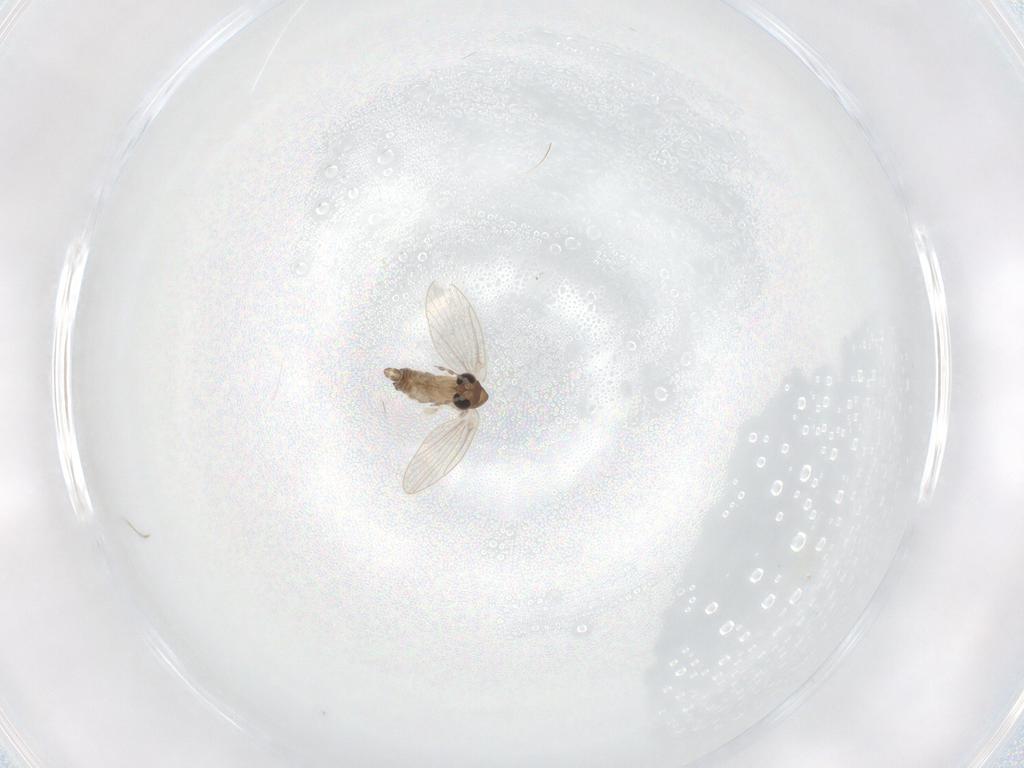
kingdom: Animalia
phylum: Arthropoda
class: Insecta
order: Diptera
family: Cecidomyiidae
